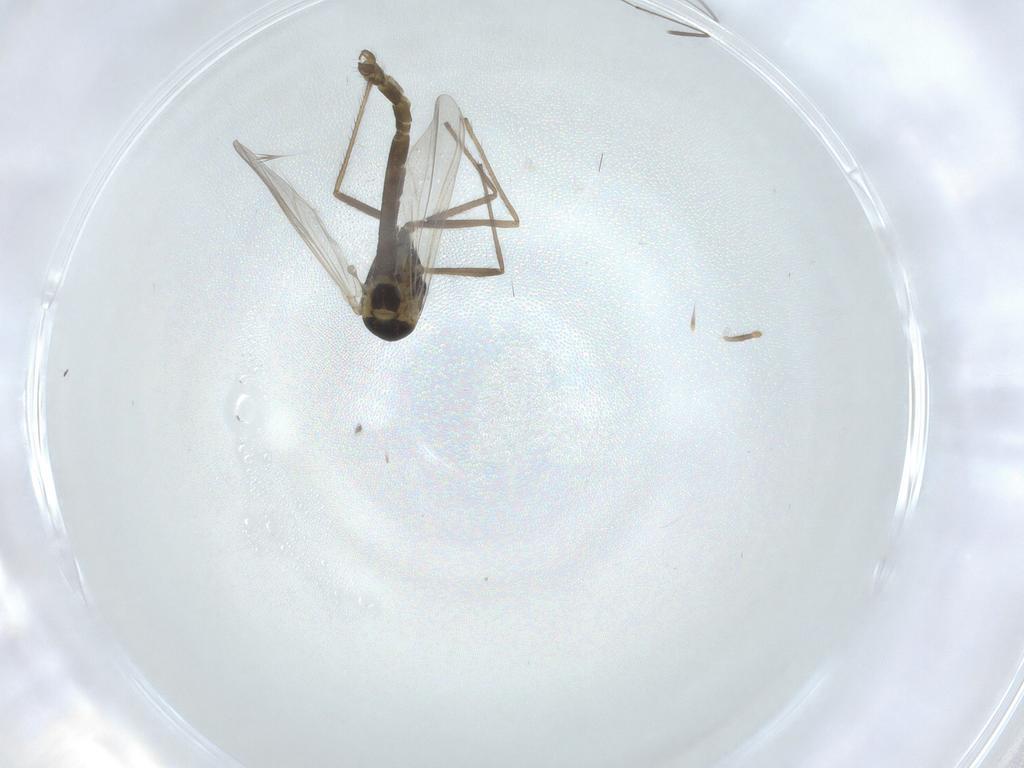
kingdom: Animalia
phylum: Arthropoda
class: Insecta
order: Diptera
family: Chironomidae
